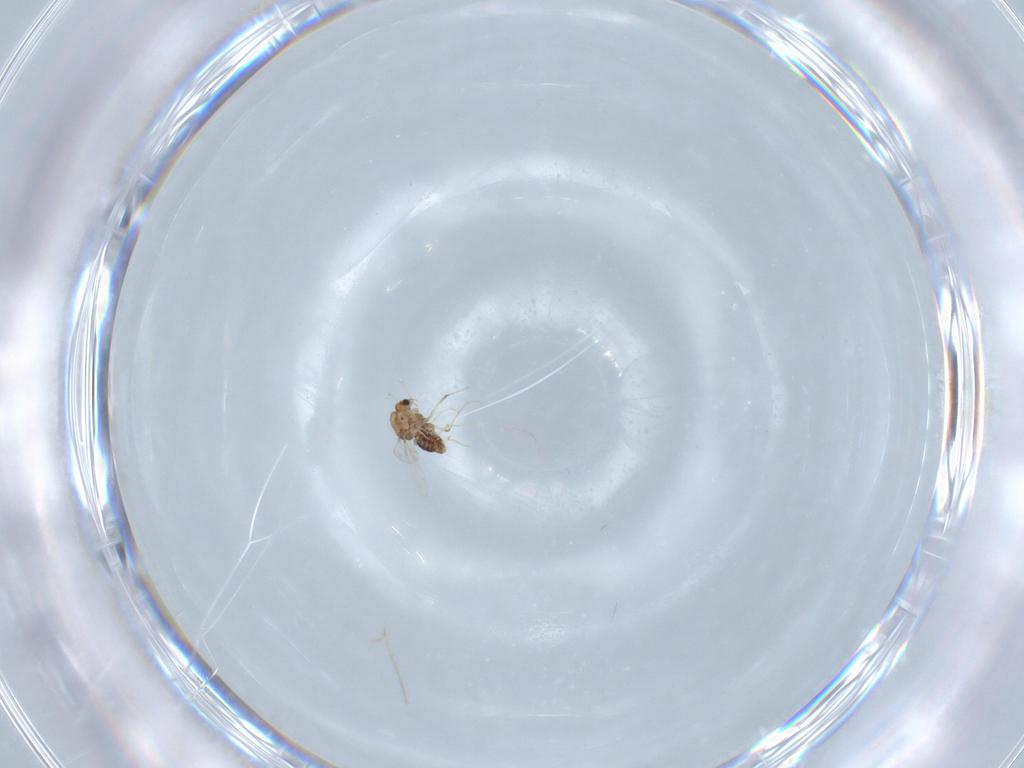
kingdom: Animalia
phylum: Arthropoda
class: Insecta
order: Diptera
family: Chironomidae
